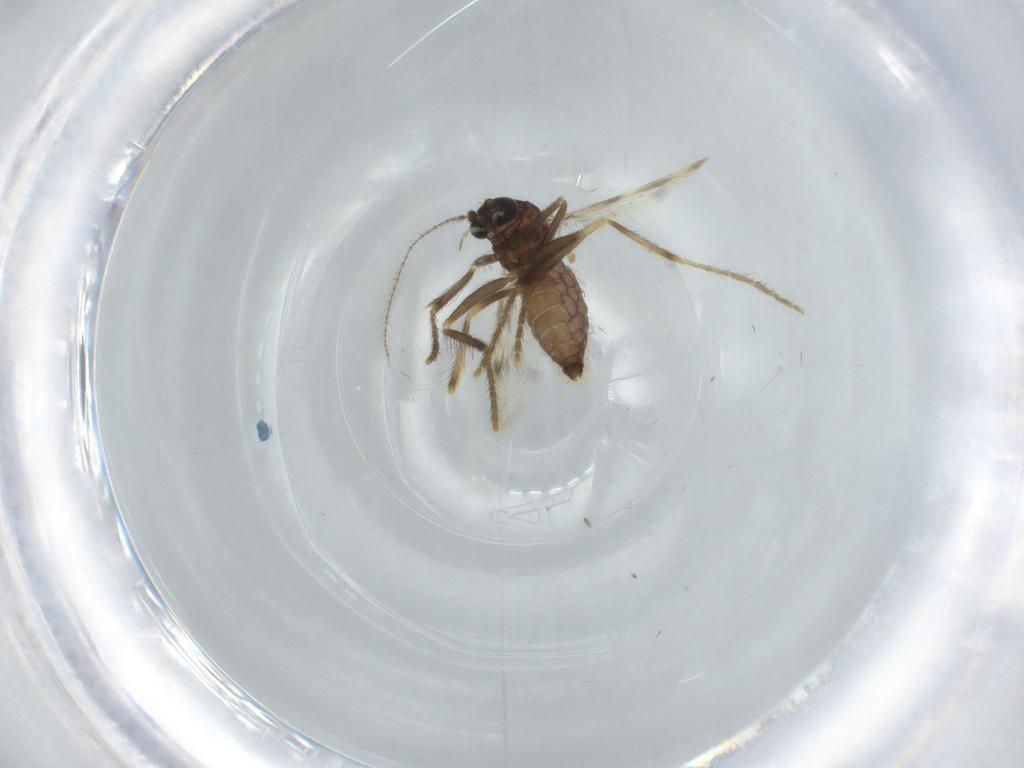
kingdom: Animalia
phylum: Arthropoda
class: Insecta
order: Diptera
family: Corethrellidae
